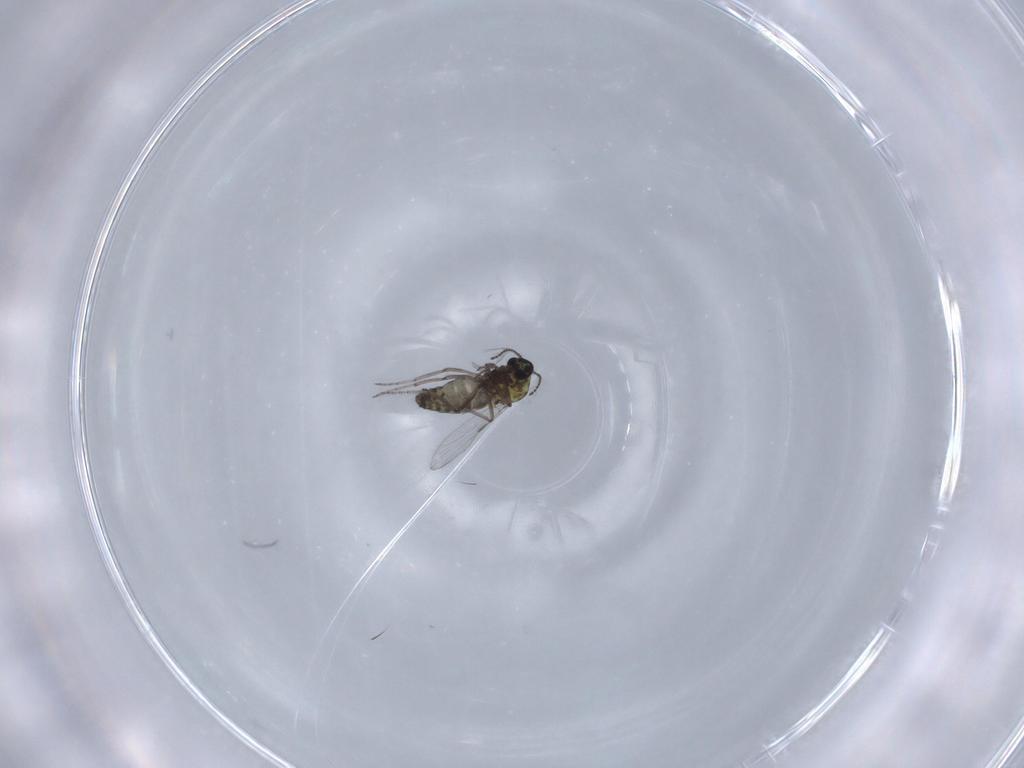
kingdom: Animalia
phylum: Arthropoda
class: Insecta
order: Diptera
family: Ceratopogonidae
